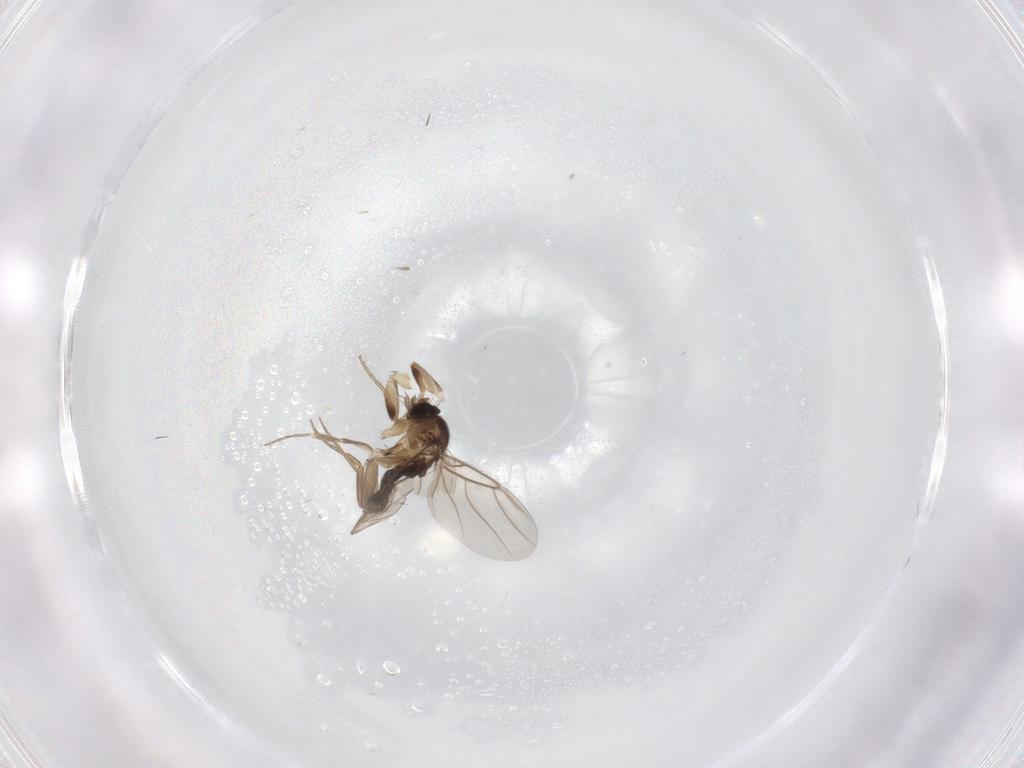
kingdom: Animalia
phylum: Arthropoda
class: Insecta
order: Diptera
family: Phoridae
